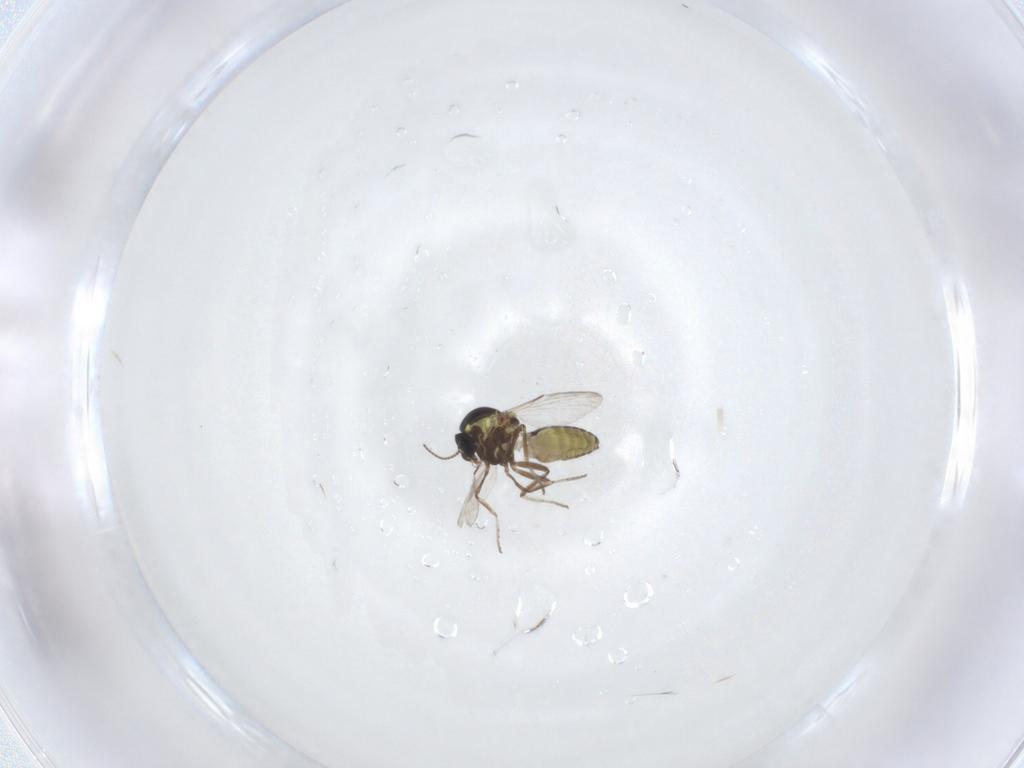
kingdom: Animalia
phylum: Arthropoda
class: Insecta
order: Diptera
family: Ceratopogonidae
